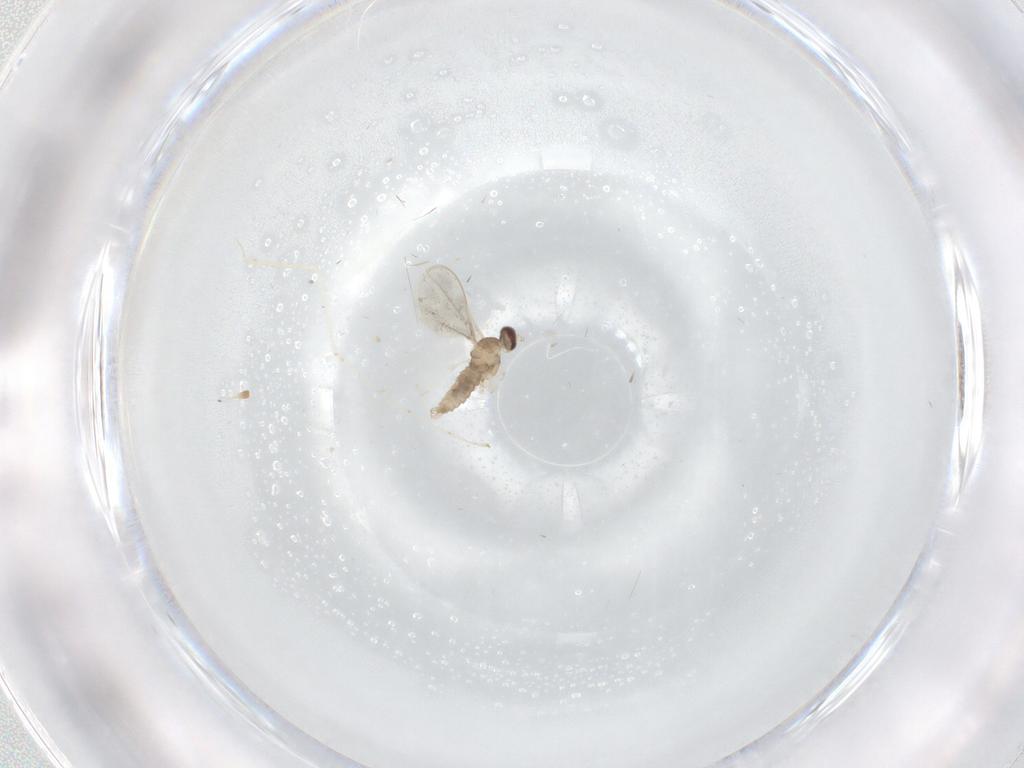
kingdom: Animalia
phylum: Arthropoda
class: Insecta
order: Diptera
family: Cecidomyiidae
